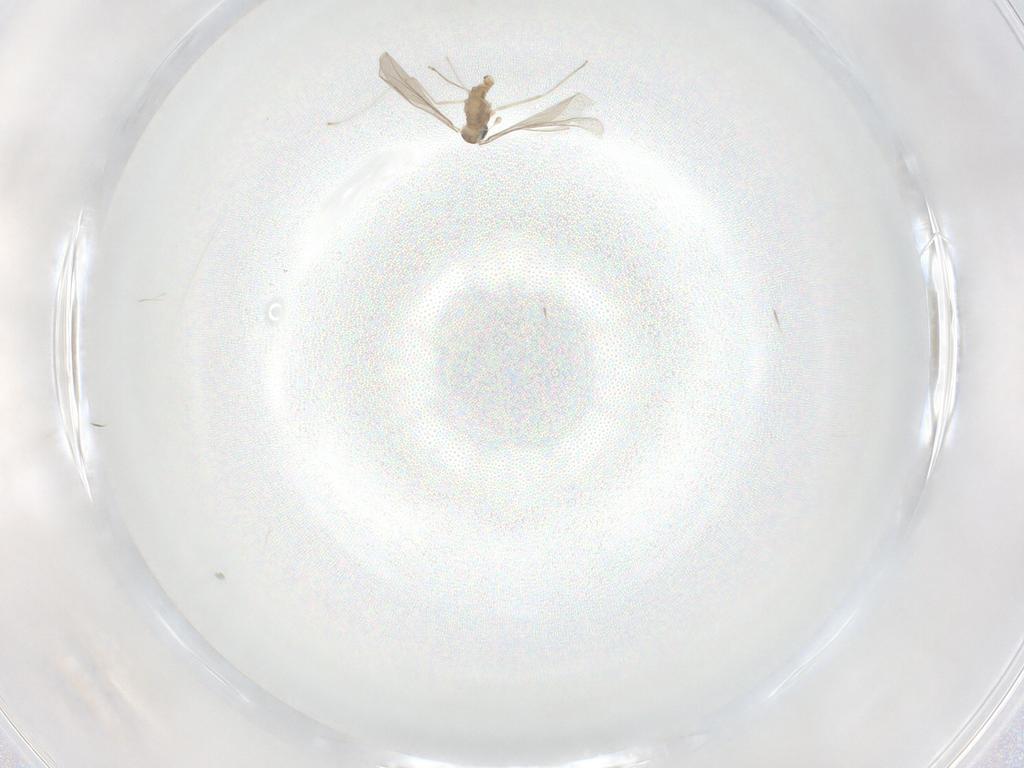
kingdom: Animalia
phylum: Arthropoda
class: Insecta
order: Diptera
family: Cecidomyiidae
